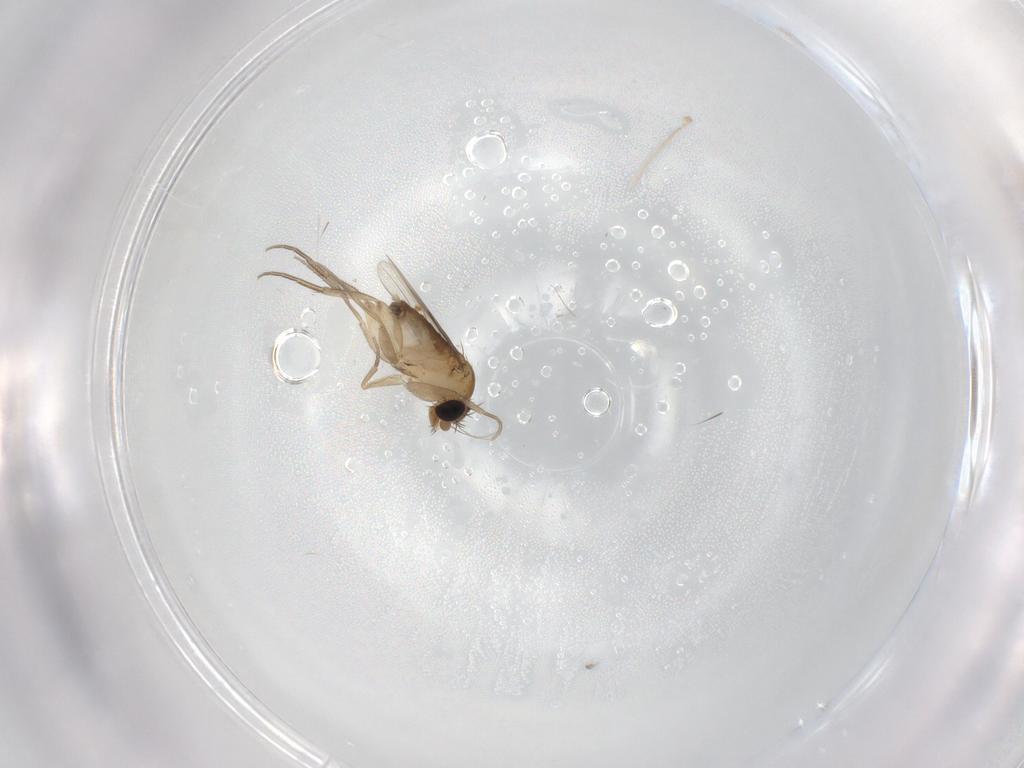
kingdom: Animalia
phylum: Arthropoda
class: Insecta
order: Diptera
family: Phoridae
